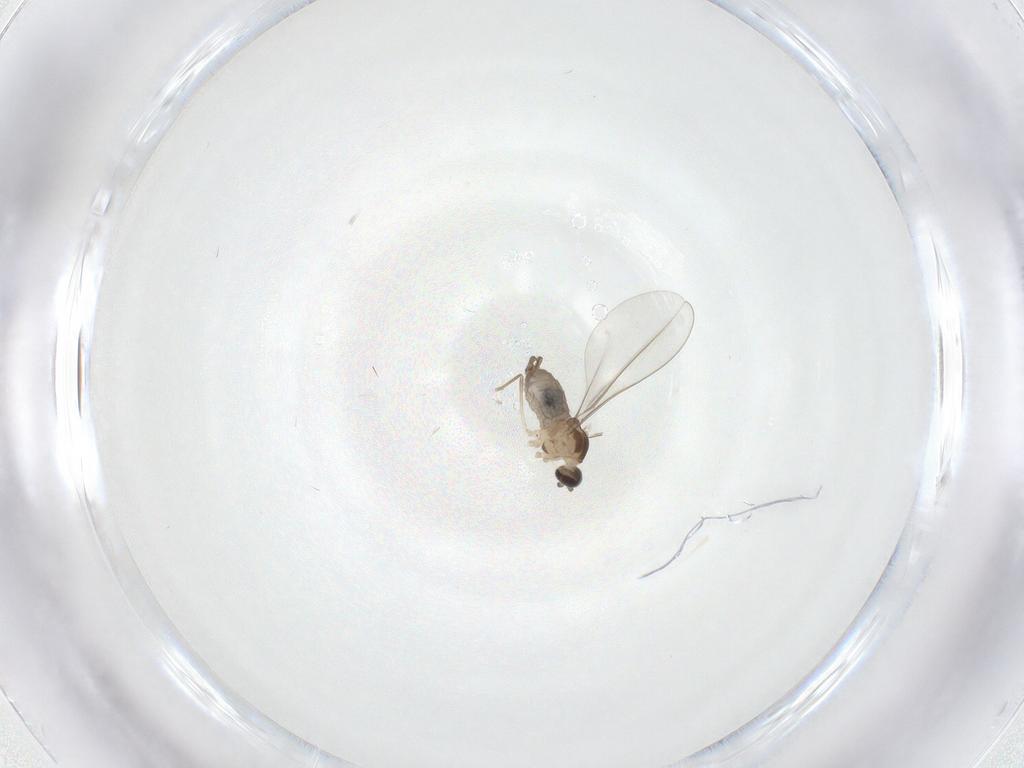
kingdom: Animalia
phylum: Arthropoda
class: Insecta
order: Diptera
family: Cecidomyiidae
